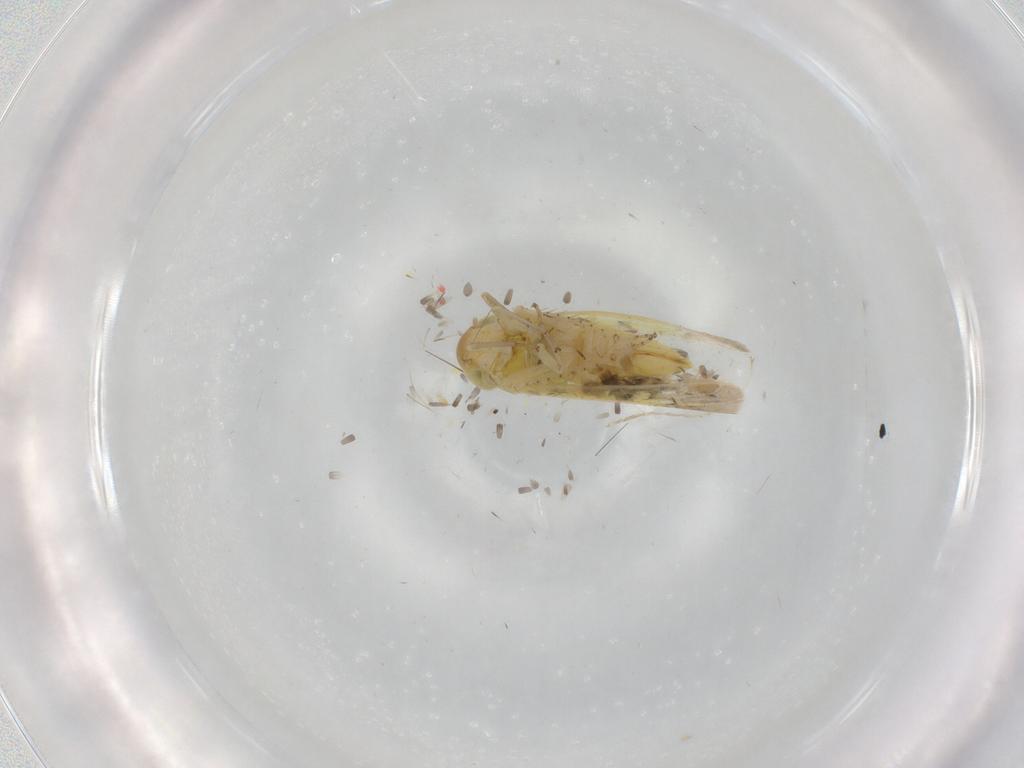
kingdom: Animalia
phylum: Arthropoda
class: Insecta
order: Hemiptera
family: Cicadellidae
